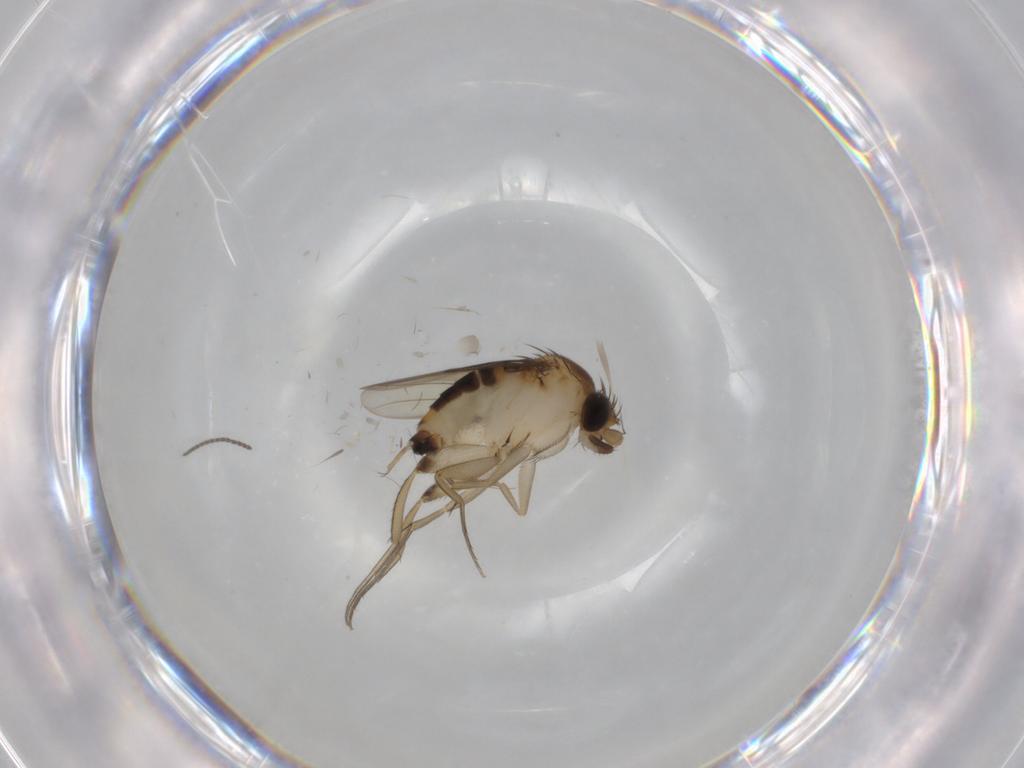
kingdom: Animalia
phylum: Arthropoda
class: Insecta
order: Diptera
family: Phoridae
